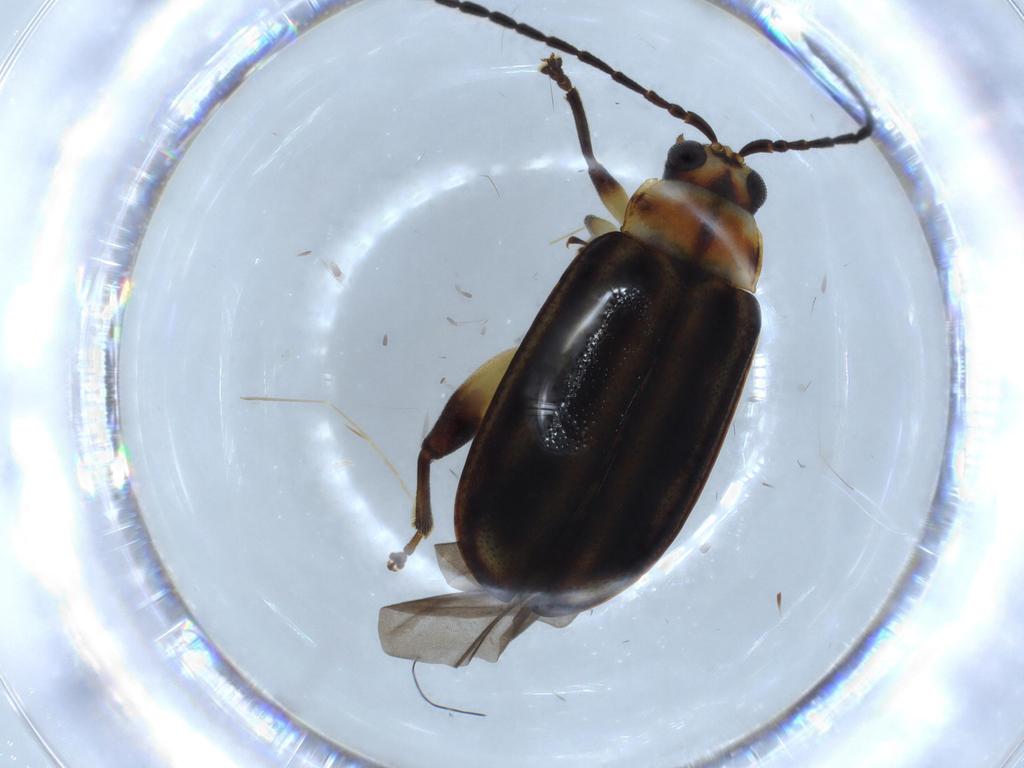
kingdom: Animalia
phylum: Arthropoda
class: Insecta
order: Coleoptera
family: Chrysomelidae
